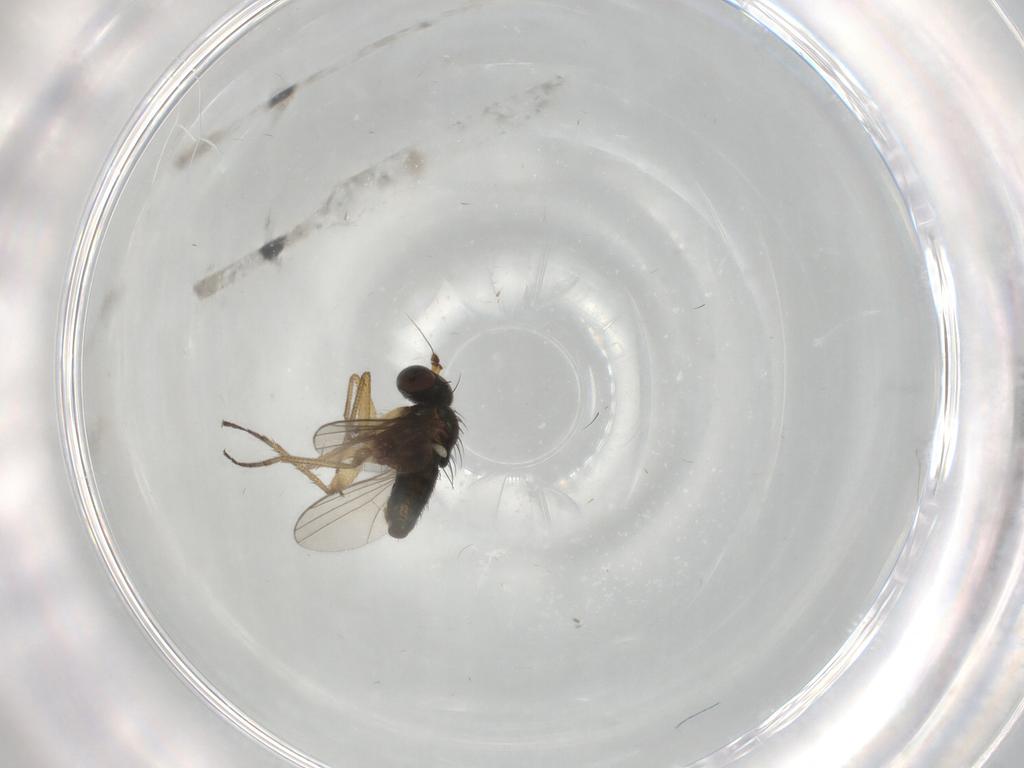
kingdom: Animalia
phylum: Arthropoda
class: Insecta
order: Diptera
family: Dolichopodidae
